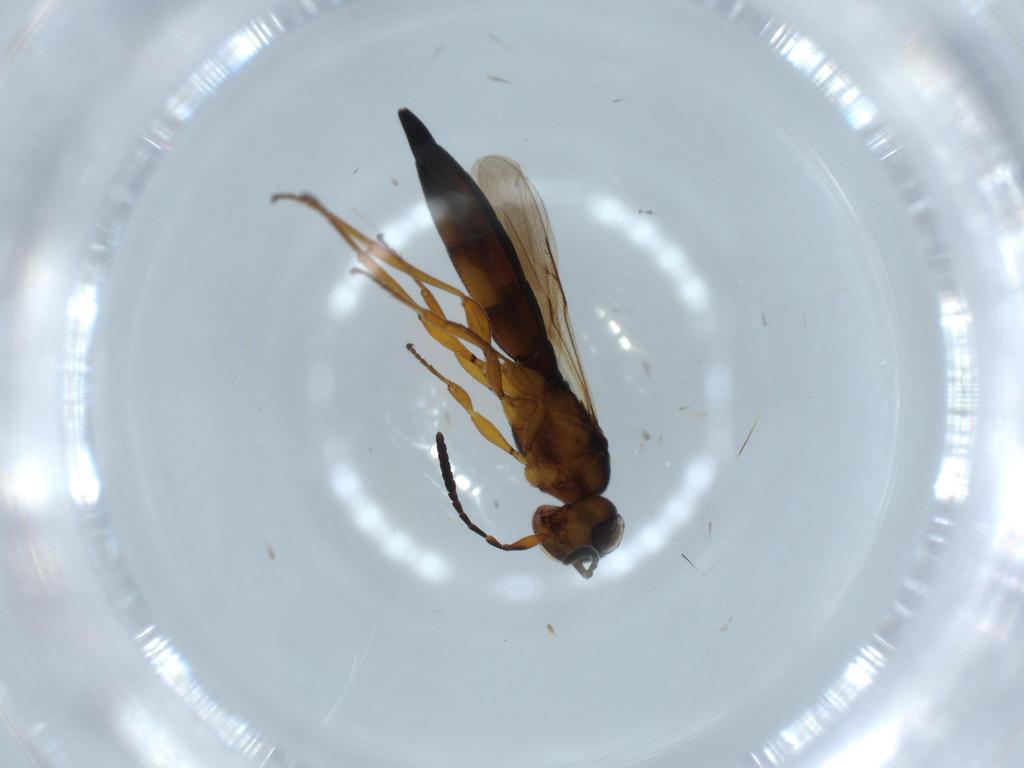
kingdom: Animalia
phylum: Arthropoda
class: Insecta
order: Hymenoptera
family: Scelionidae
